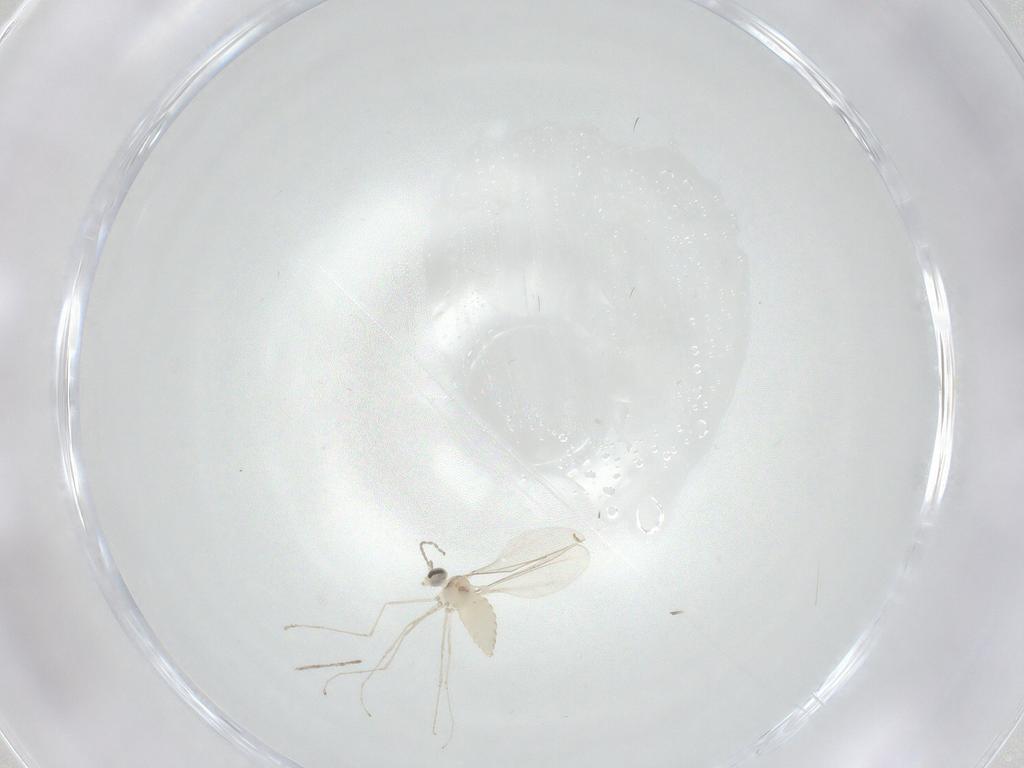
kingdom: Animalia
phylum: Arthropoda
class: Insecta
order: Diptera
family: Cecidomyiidae
